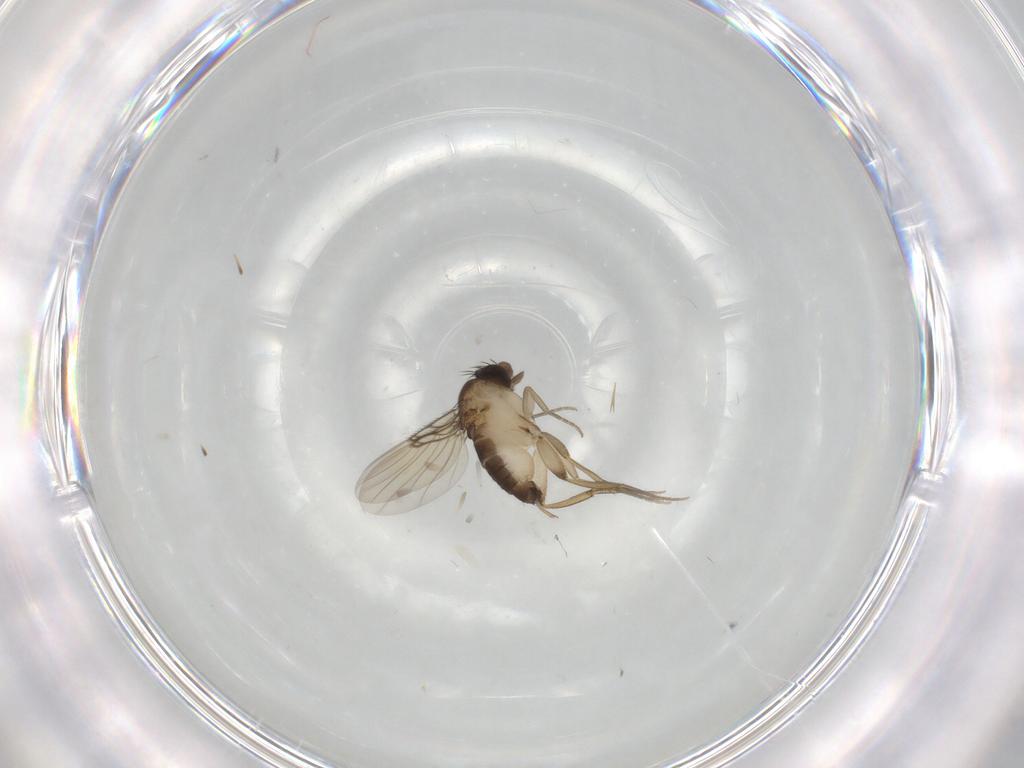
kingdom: Animalia
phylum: Arthropoda
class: Insecta
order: Diptera
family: Phoridae
